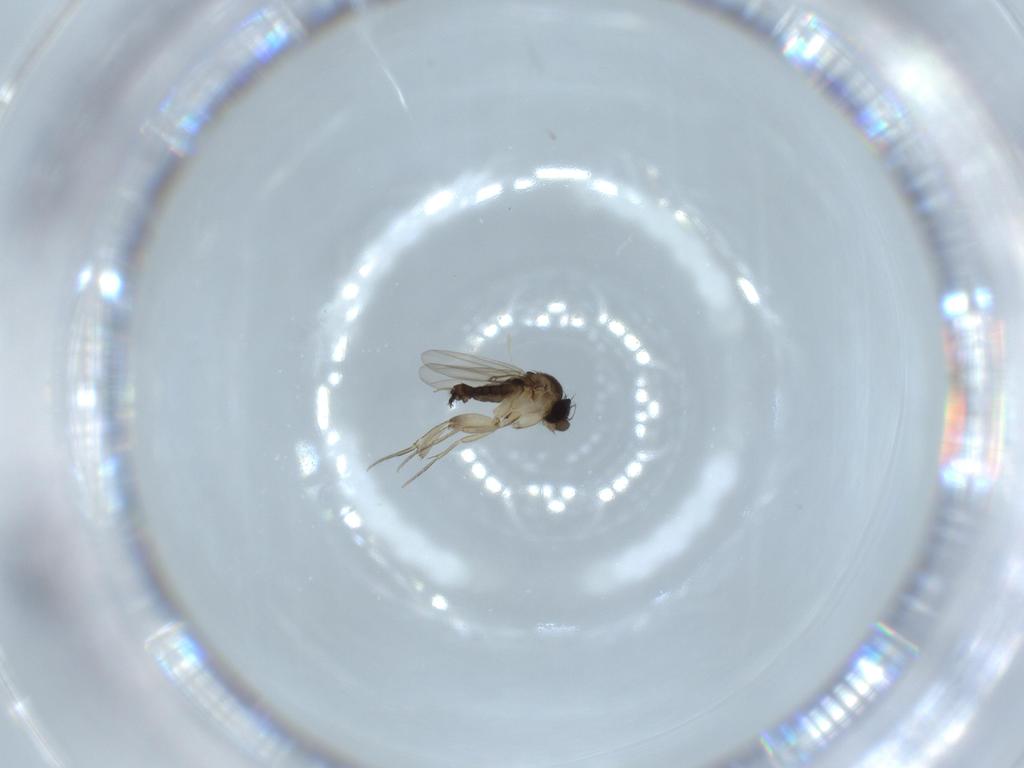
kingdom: Animalia
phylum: Arthropoda
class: Insecta
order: Diptera
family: Phoridae
